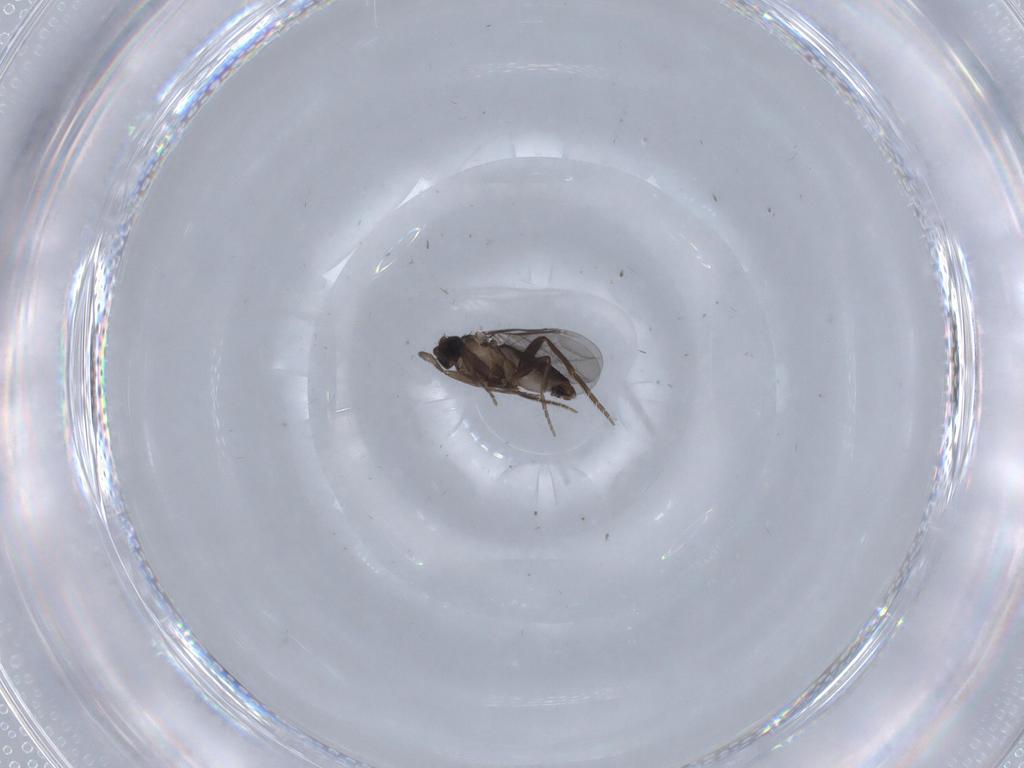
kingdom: Animalia
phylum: Arthropoda
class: Insecta
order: Diptera
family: Phoridae
